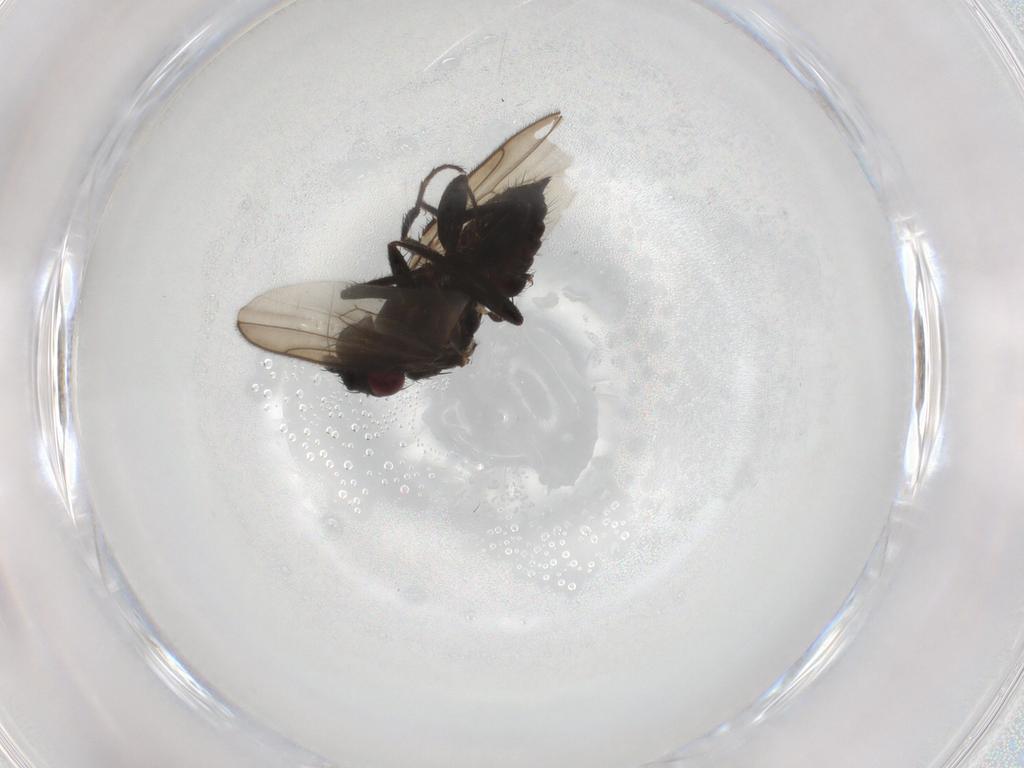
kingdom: Animalia
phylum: Arthropoda
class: Insecta
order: Diptera
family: Sphaeroceridae
